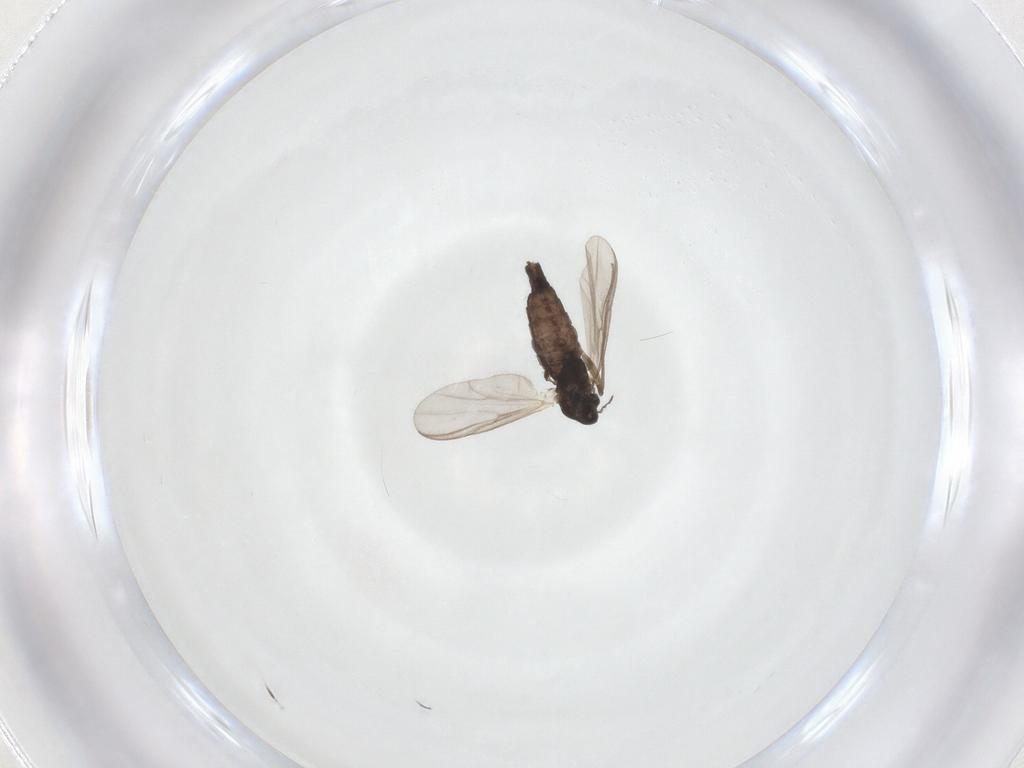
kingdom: Animalia
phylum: Arthropoda
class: Insecta
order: Diptera
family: Chironomidae
